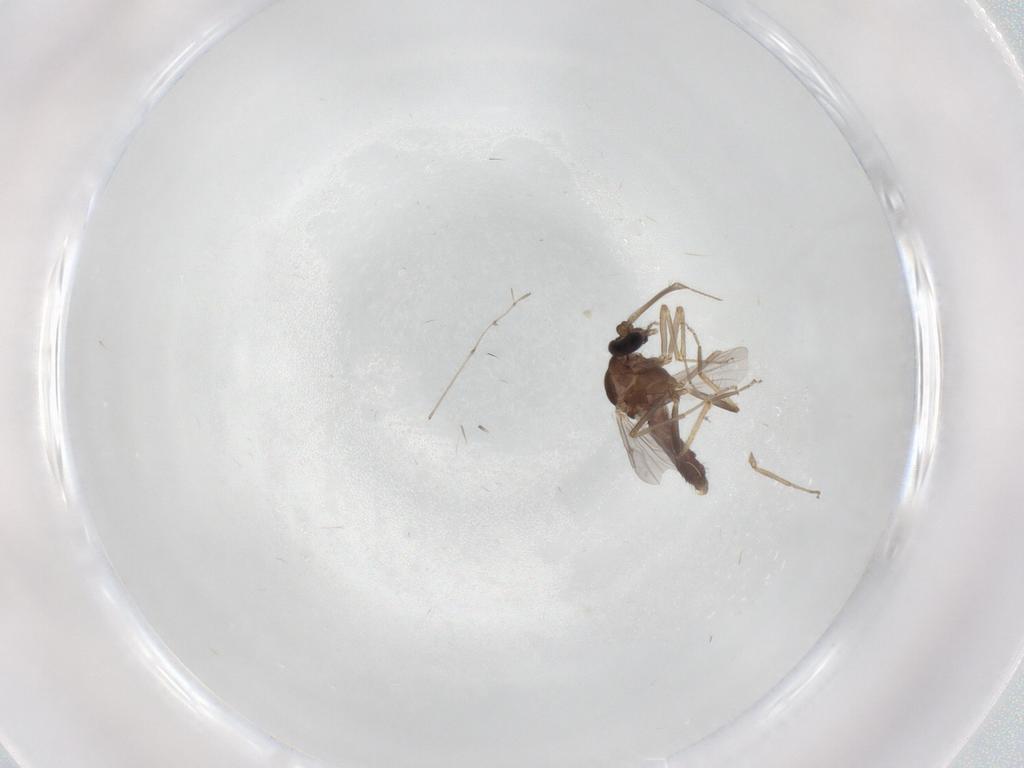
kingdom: Animalia
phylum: Arthropoda
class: Insecta
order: Diptera
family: Ceratopogonidae
